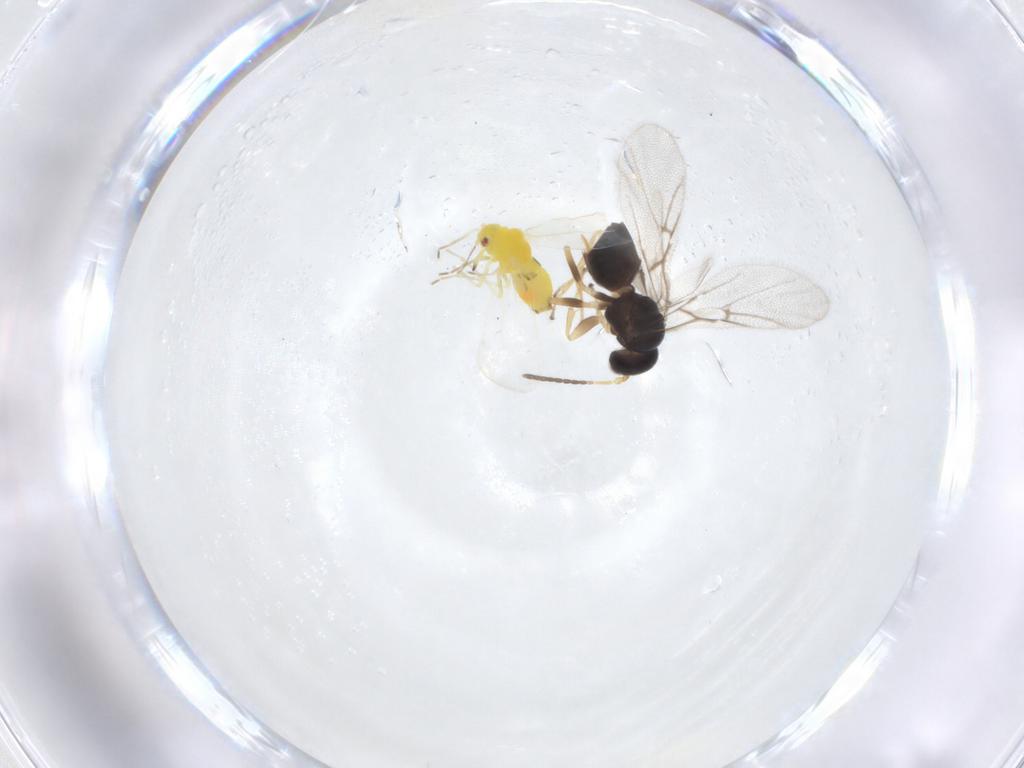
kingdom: Animalia
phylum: Arthropoda
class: Insecta
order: Hymenoptera
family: Cynipidae
